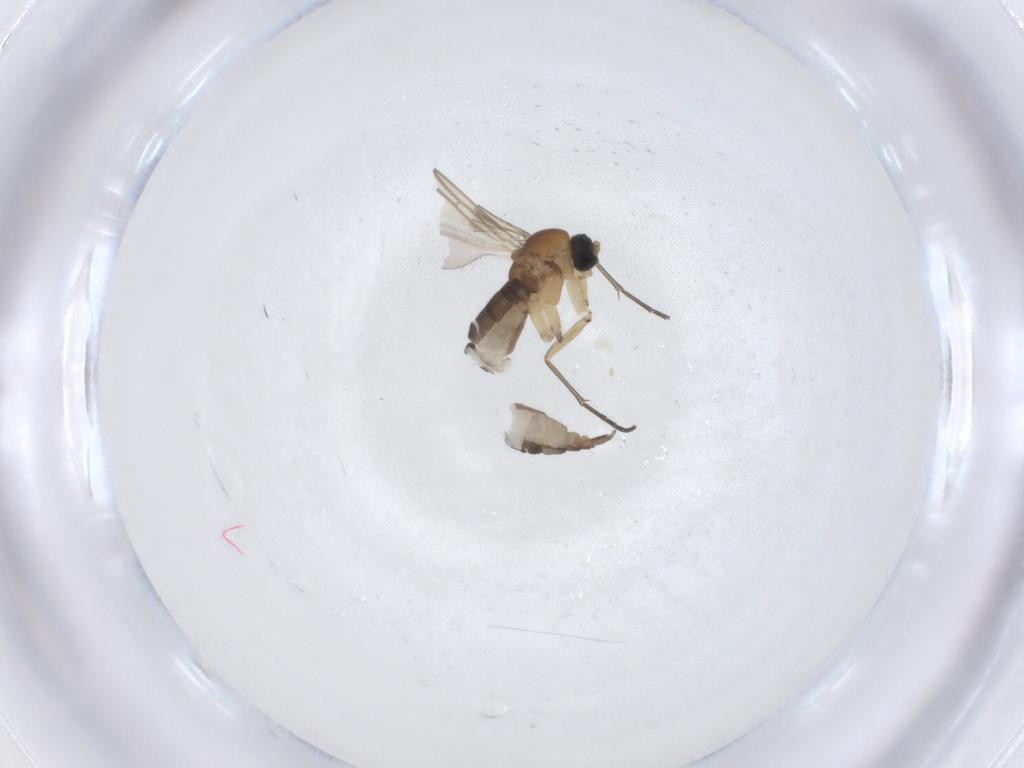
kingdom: Animalia
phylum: Arthropoda
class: Insecta
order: Diptera
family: Sciaridae
